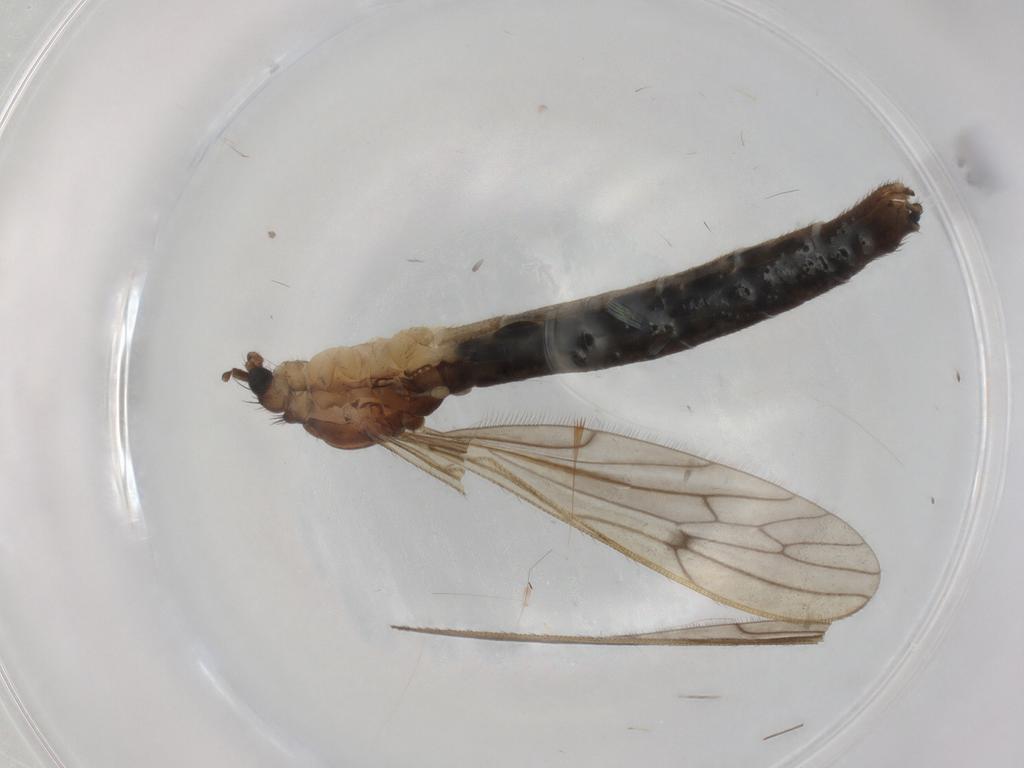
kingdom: Animalia
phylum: Arthropoda
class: Insecta
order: Diptera
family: Limoniidae
